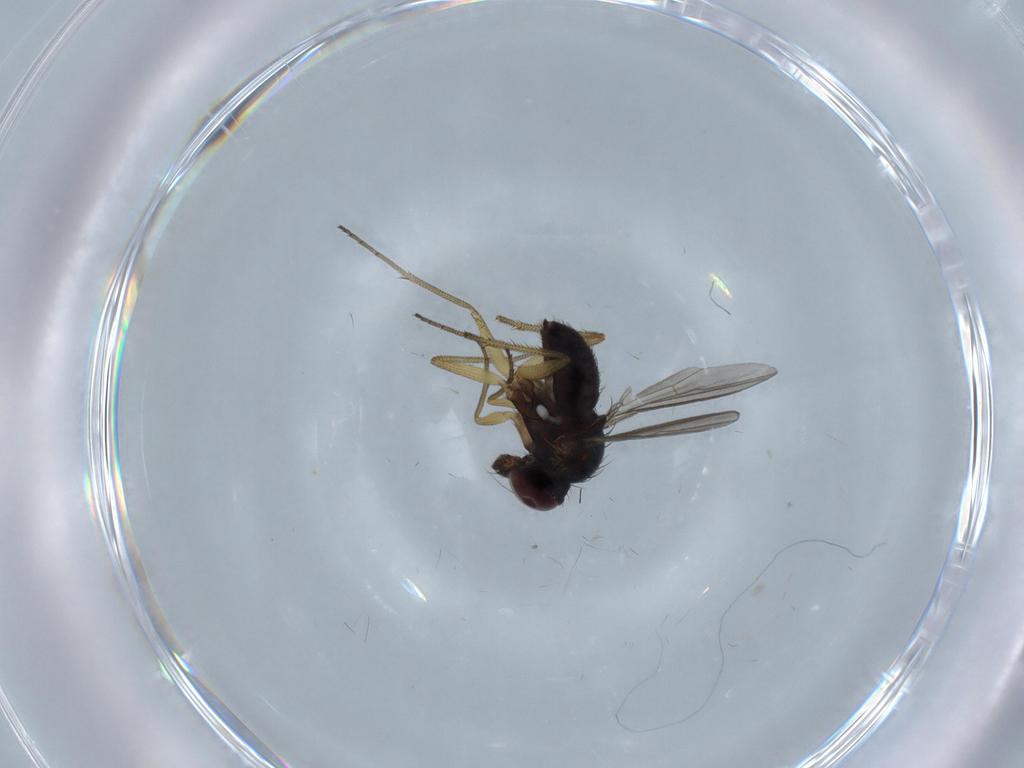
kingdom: Animalia
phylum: Arthropoda
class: Insecta
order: Diptera
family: Dolichopodidae
